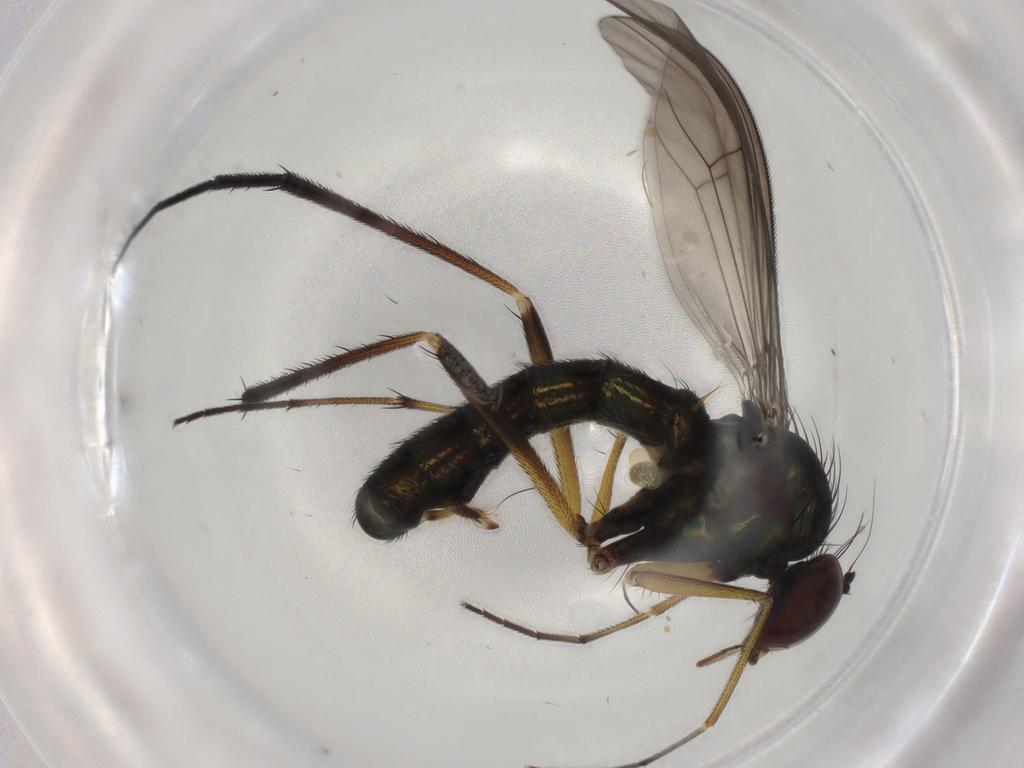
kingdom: Animalia
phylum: Arthropoda
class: Insecta
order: Diptera
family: Dolichopodidae
